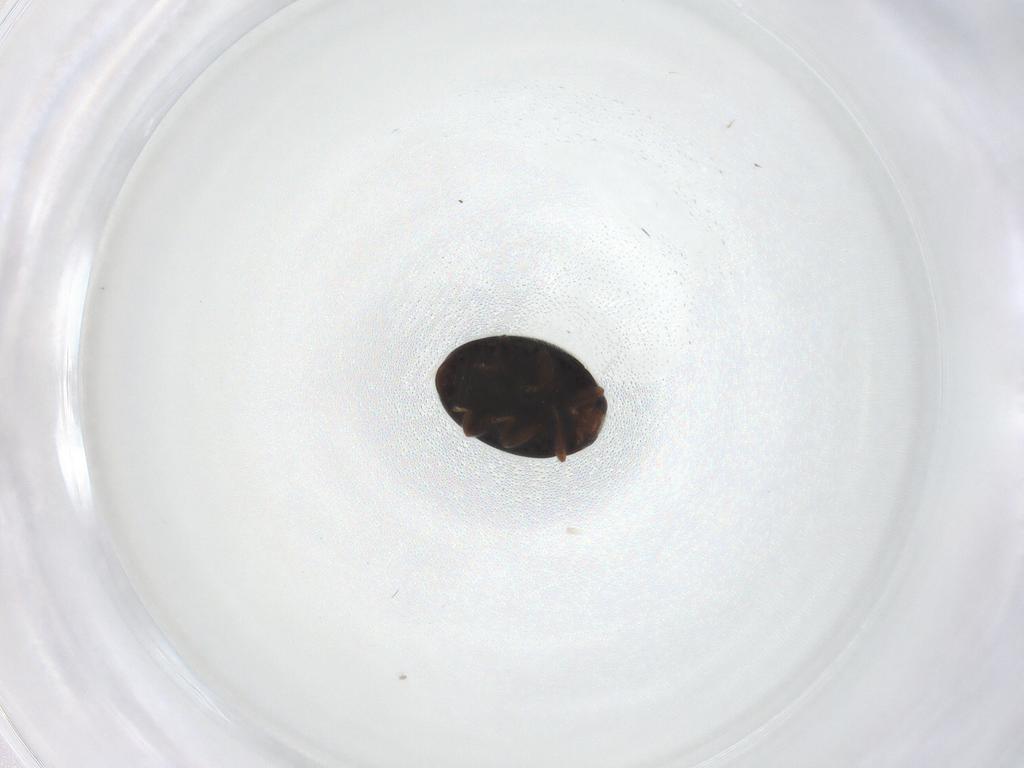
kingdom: Animalia
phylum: Arthropoda
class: Insecta
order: Coleoptera
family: Coccinellidae
